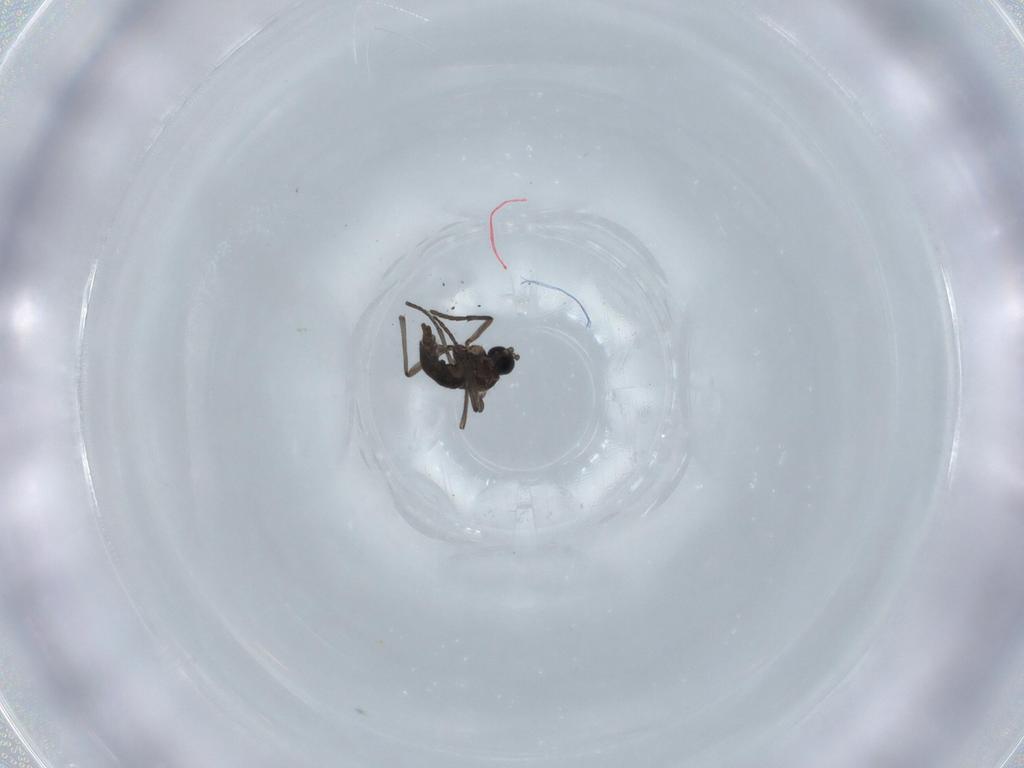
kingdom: Animalia
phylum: Arthropoda
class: Insecta
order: Diptera
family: Sciaridae
